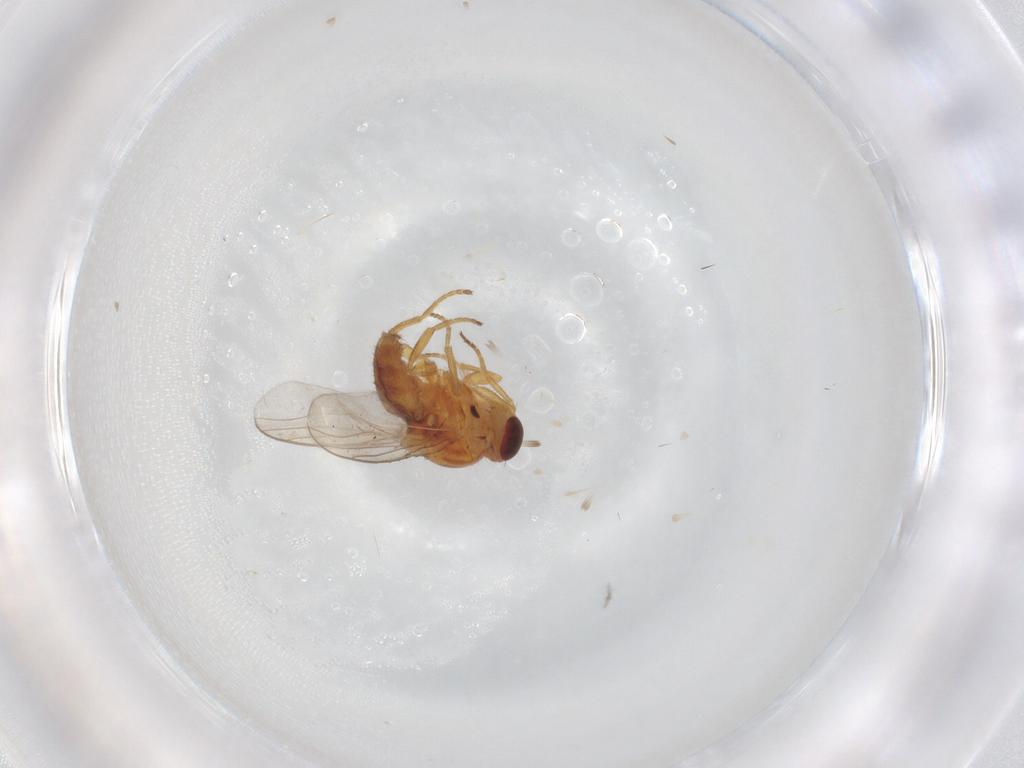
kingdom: Animalia
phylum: Arthropoda
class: Insecta
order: Diptera
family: Chloropidae
